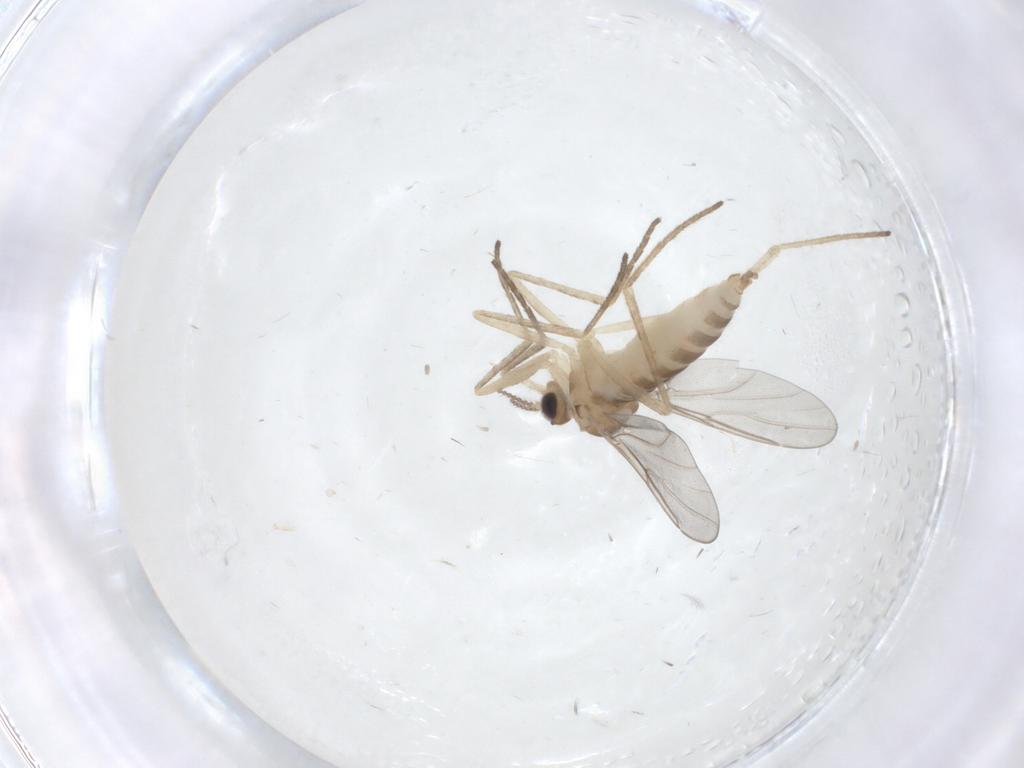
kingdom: Animalia
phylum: Arthropoda
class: Insecta
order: Diptera
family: Cecidomyiidae
